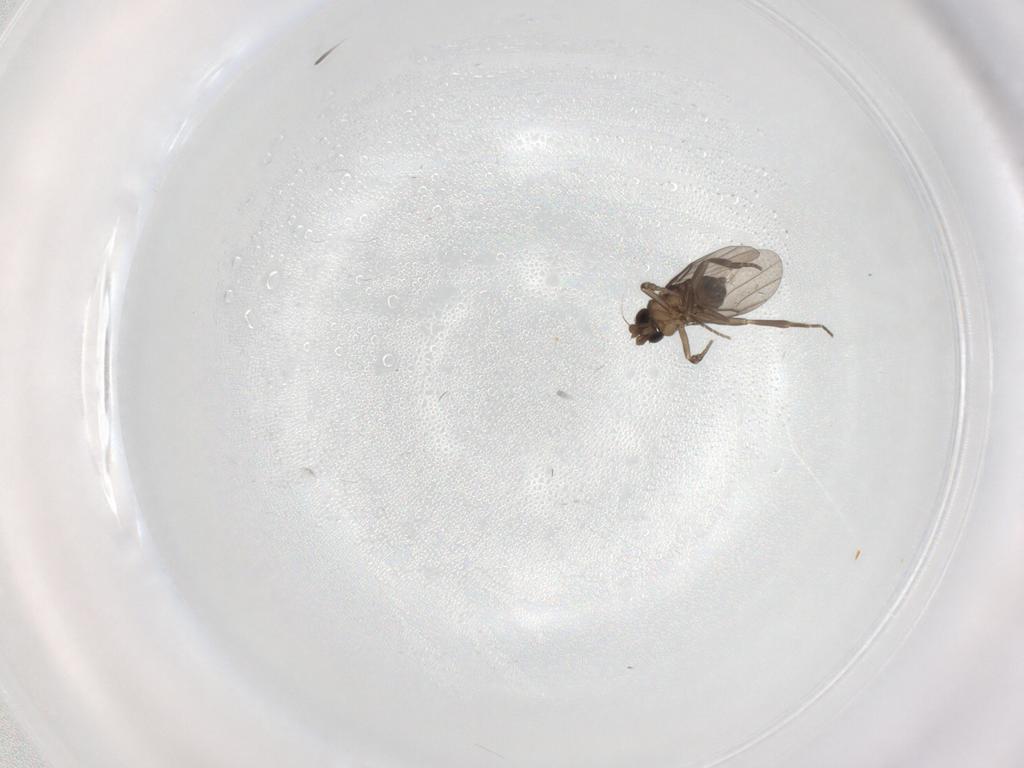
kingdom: Animalia
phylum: Arthropoda
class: Insecta
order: Diptera
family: Cecidomyiidae
